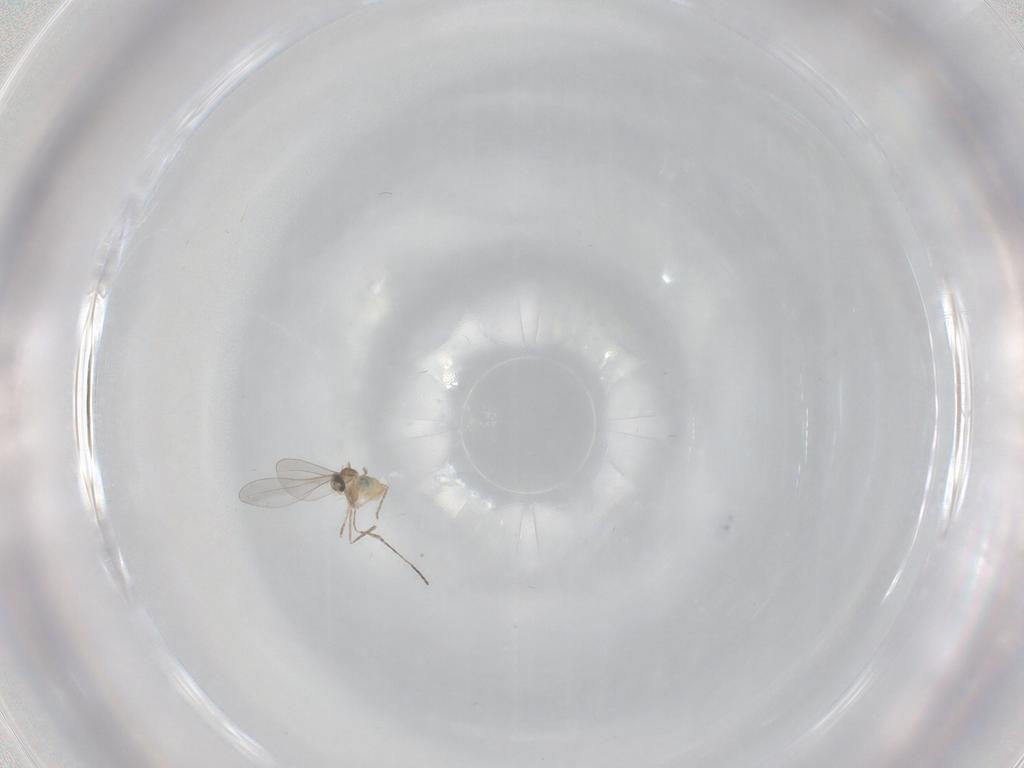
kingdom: Animalia
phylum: Arthropoda
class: Insecta
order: Diptera
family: Cecidomyiidae
